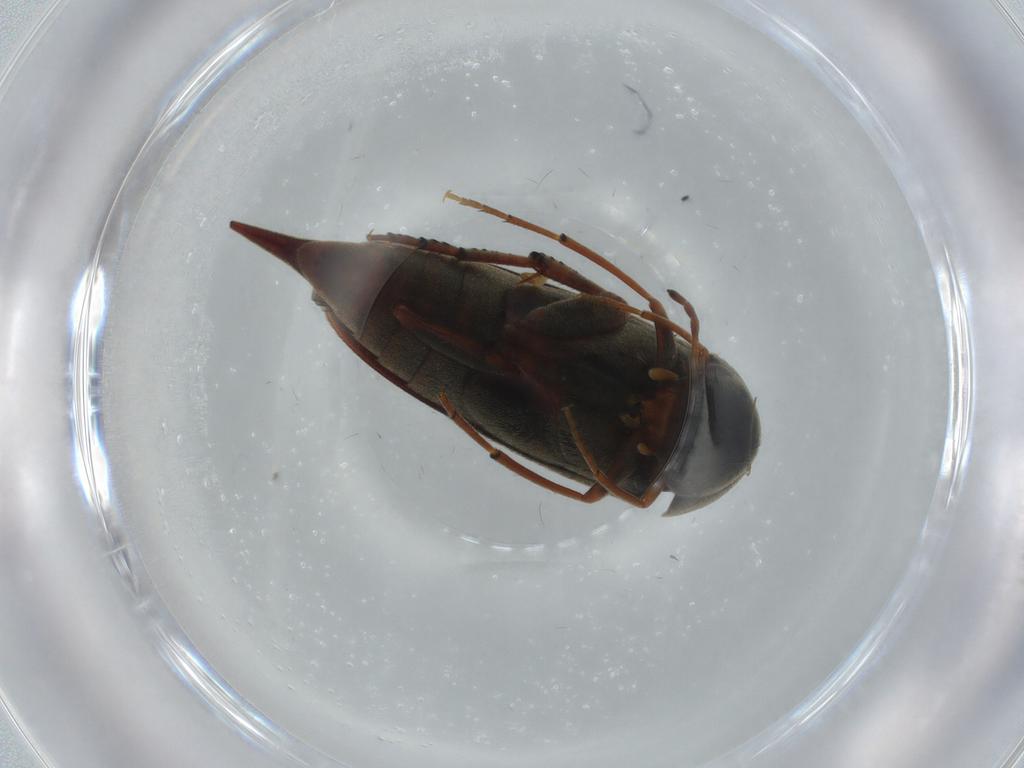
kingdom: Animalia
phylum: Arthropoda
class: Insecta
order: Coleoptera
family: Mordellidae
